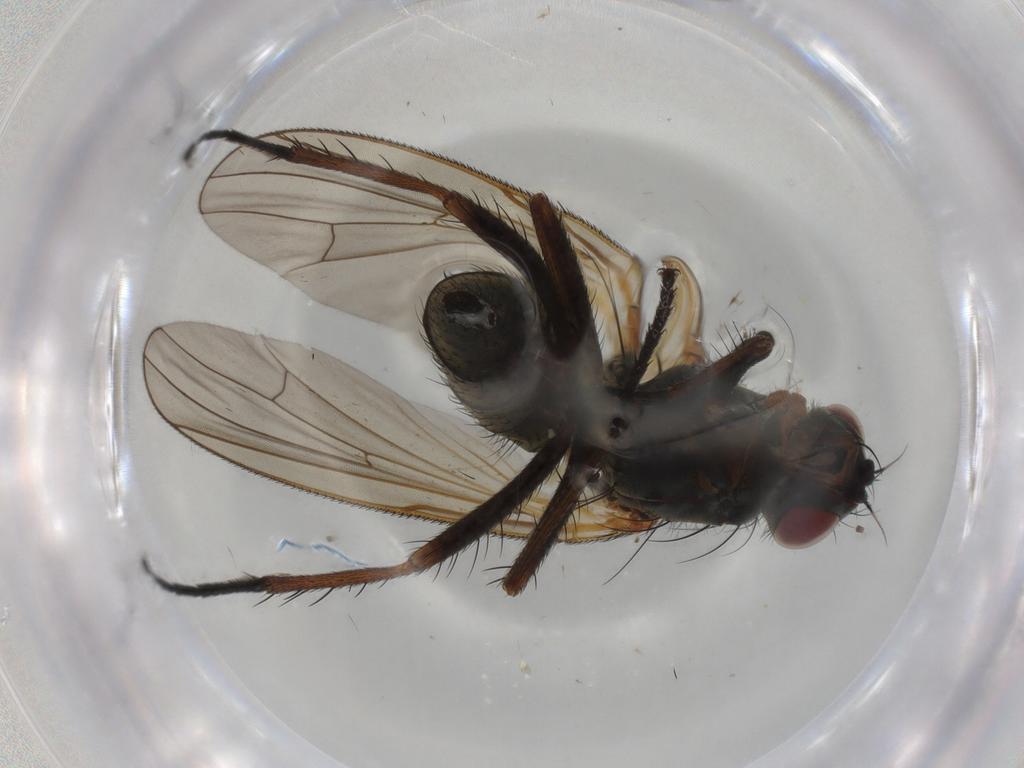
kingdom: Animalia
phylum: Arthropoda
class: Insecta
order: Diptera
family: Anthomyiidae
